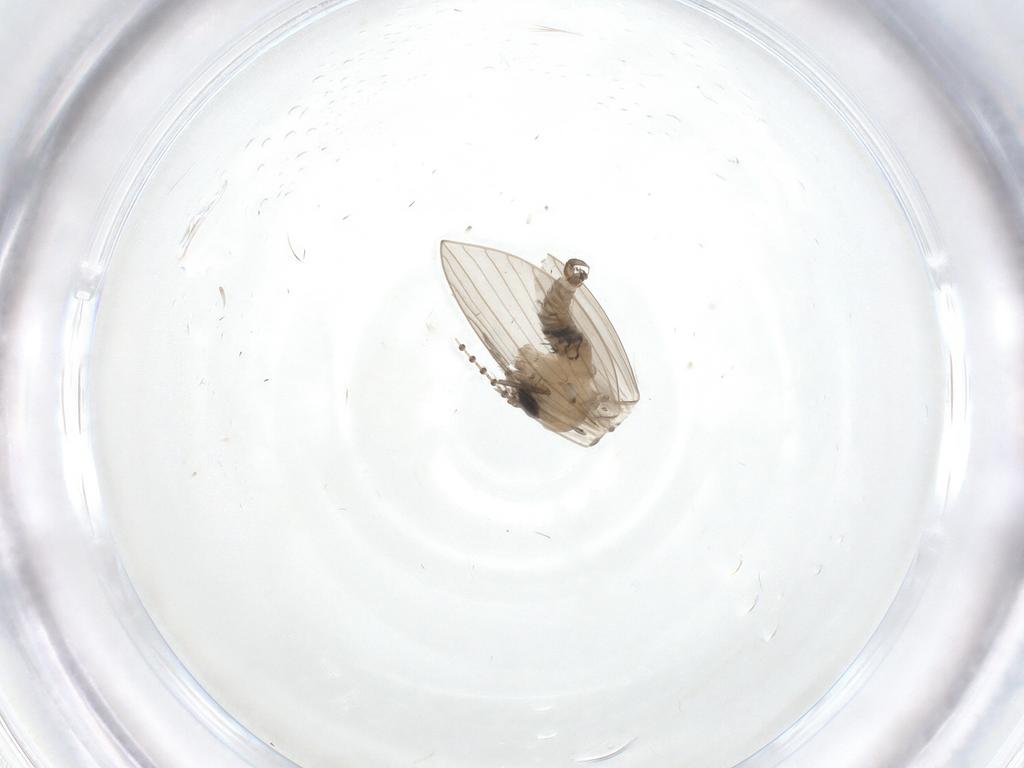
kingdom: Animalia
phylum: Arthropoda
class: Insecta
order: Diptera
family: Psychodidae
